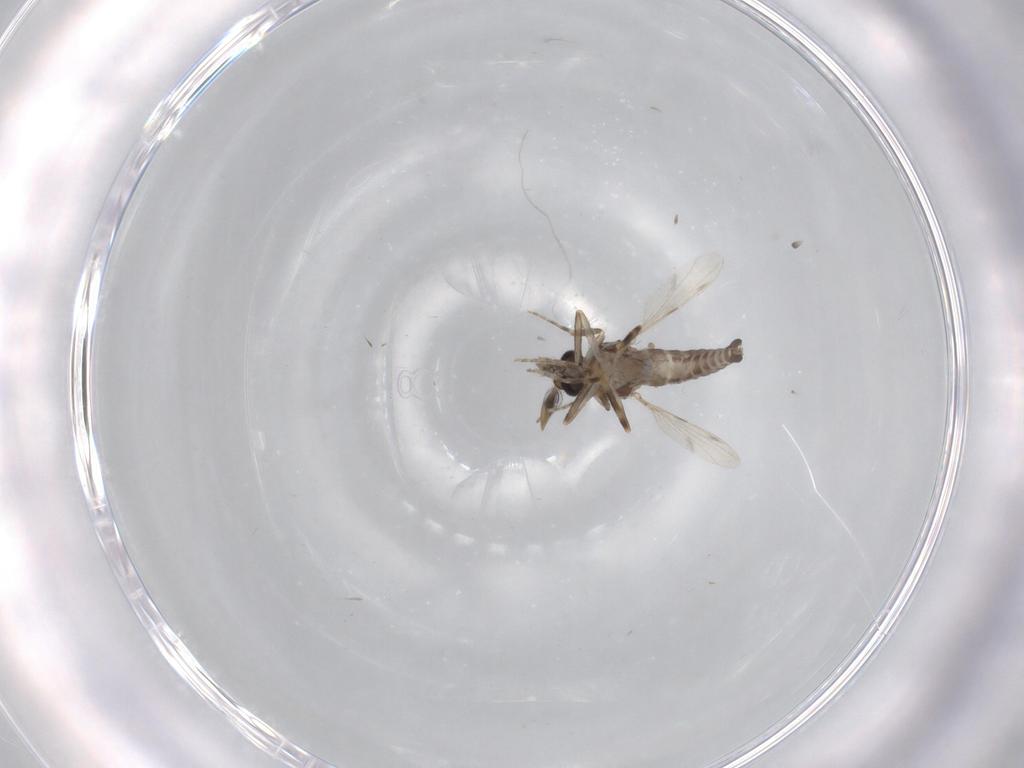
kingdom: Animalia
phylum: Arthropoda
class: Insecta
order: Diptera
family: Ceratopogonidae
